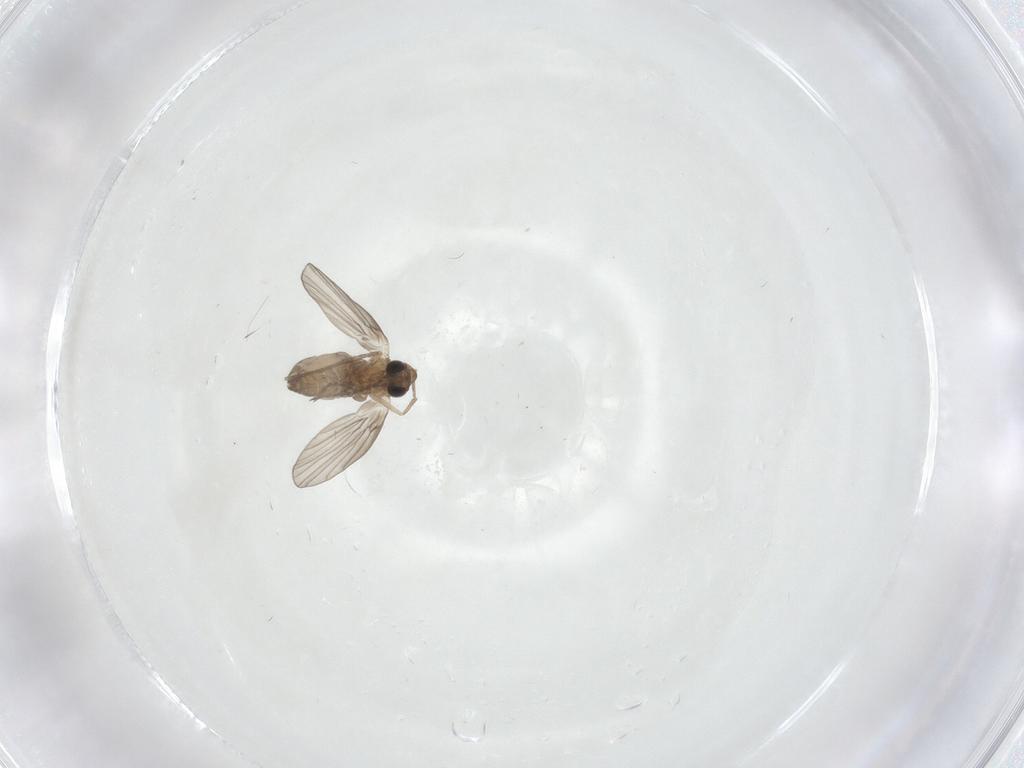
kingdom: Animalia
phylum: Arthropoda
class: Insecta
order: Diptera
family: Psychodidae
